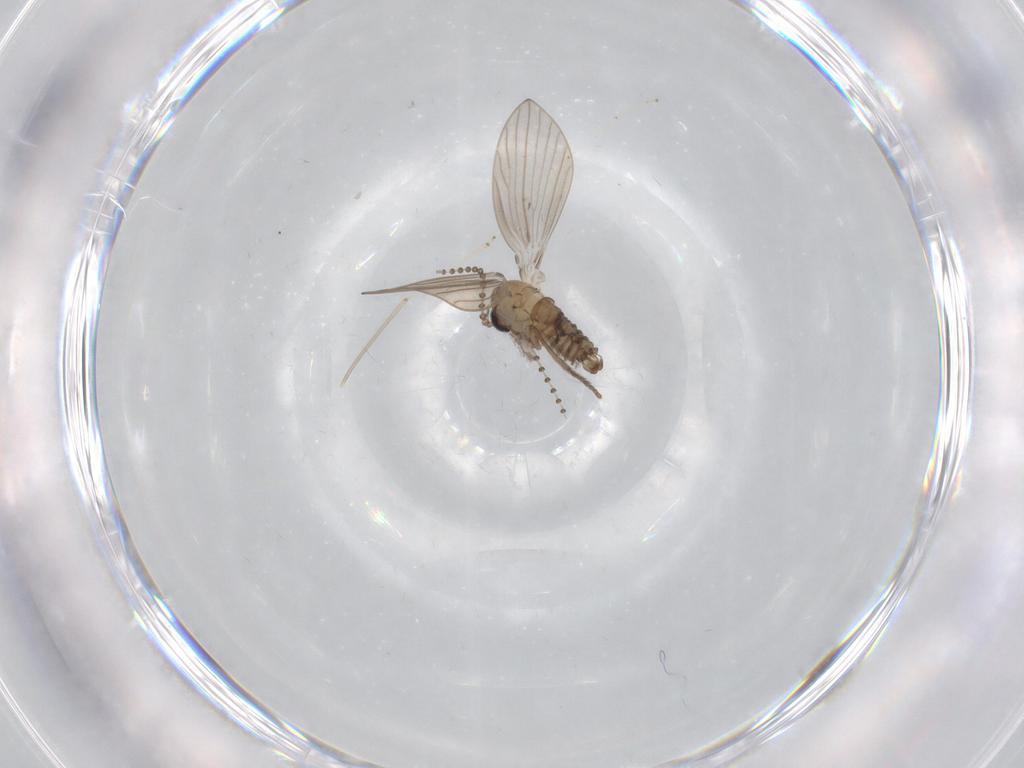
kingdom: Animalia
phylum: Arthropoda
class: Insecta
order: Diptera
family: Psychodidae
